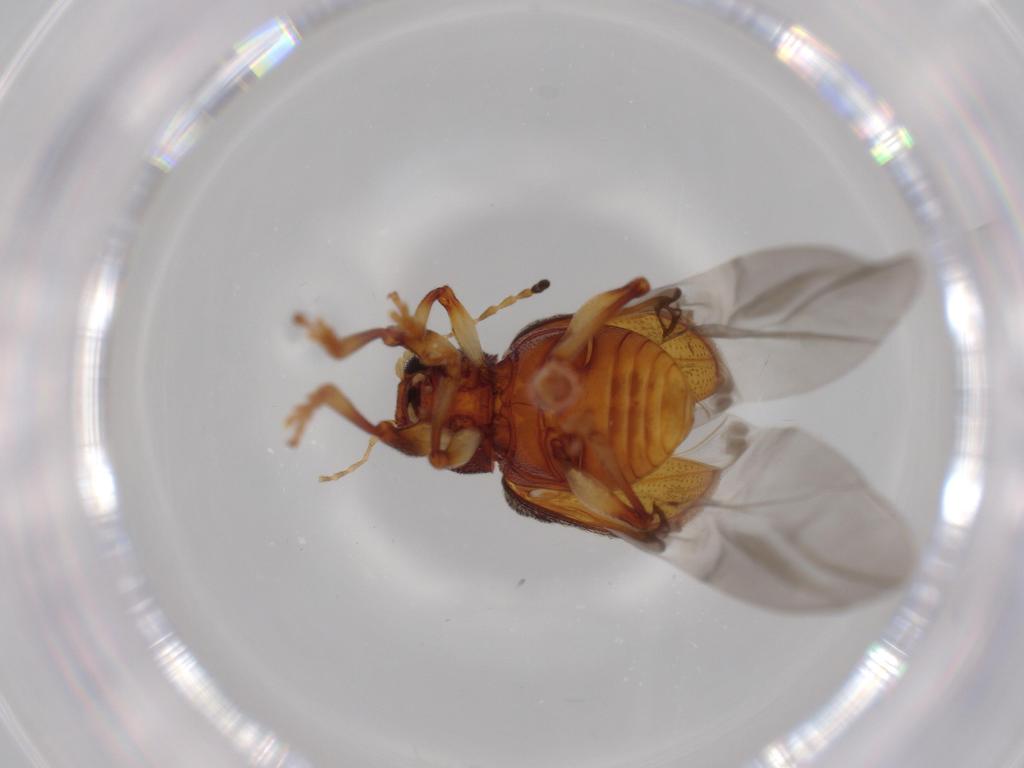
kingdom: Animalia
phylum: Arthropoda
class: Insecta
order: Coleoptera
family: Chrysomelidae
